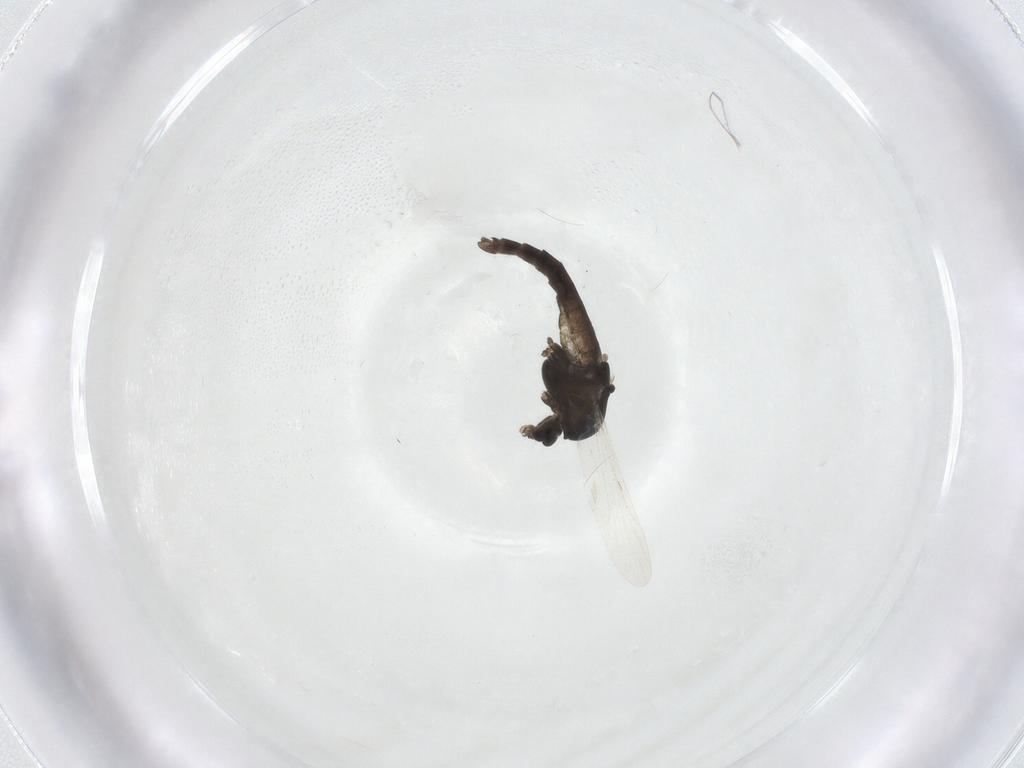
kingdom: Animalia
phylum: Arthropoda
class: Insecta
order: Diptera
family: Chironomidae
